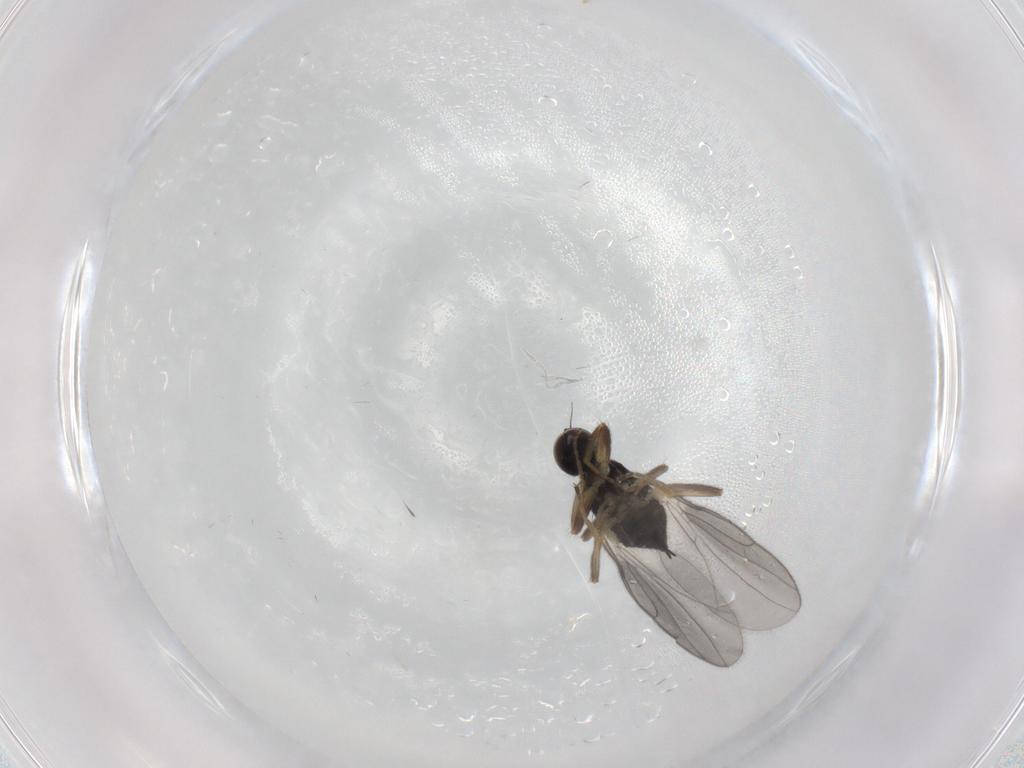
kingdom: Animalia
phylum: Arthropoda
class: Insecta
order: Diptera
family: Hybotidae
